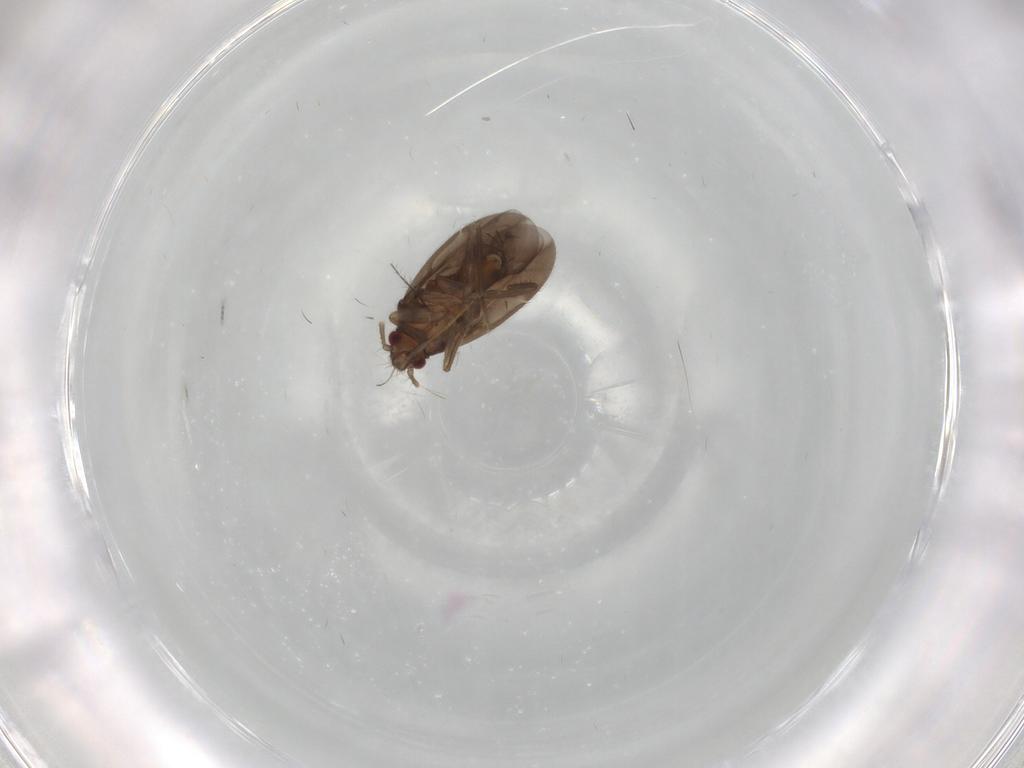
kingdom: Animalia
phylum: Arthropoda
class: Insecta
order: Hemiptera
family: Ceratocombidae
